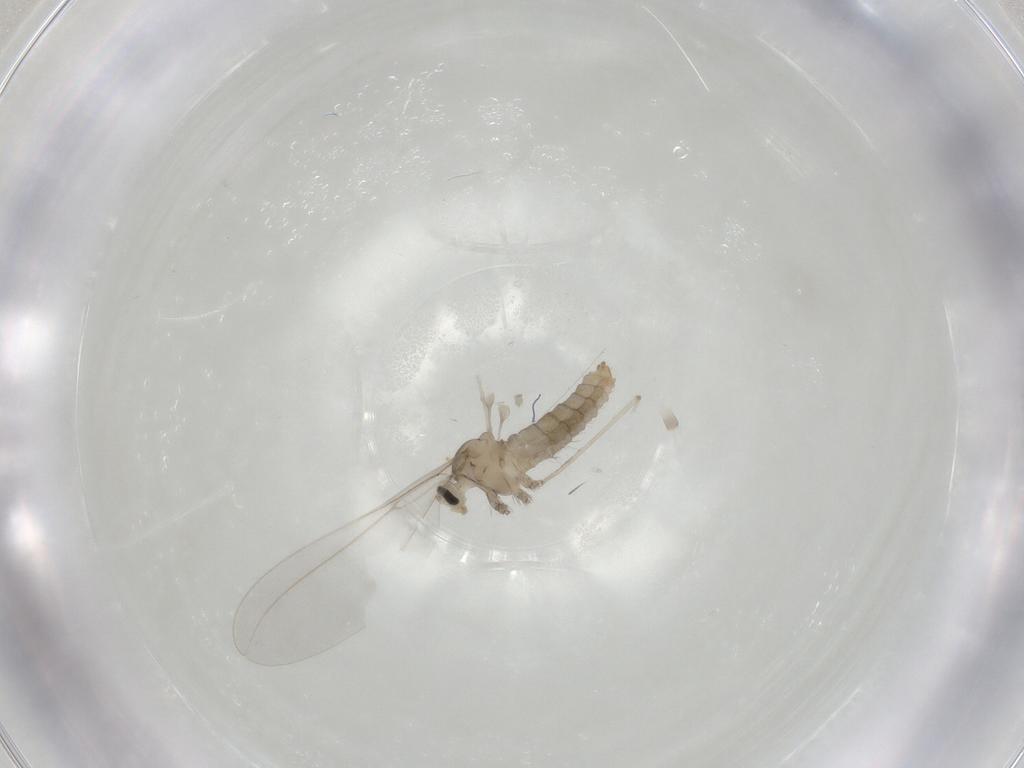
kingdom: Animalia
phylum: Arthropoda
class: Insecta
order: Diptera
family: Cecidomyiidae
